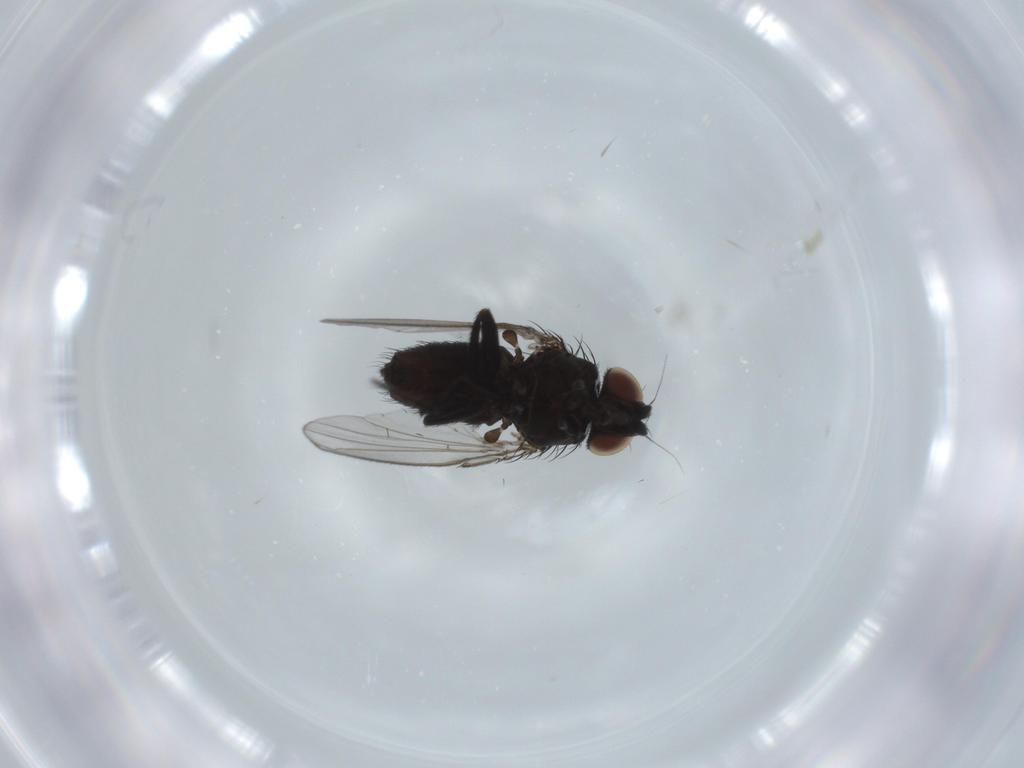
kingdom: Animalia
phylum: Arthropoda
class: Insecta
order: Diptera
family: Milichiidae
